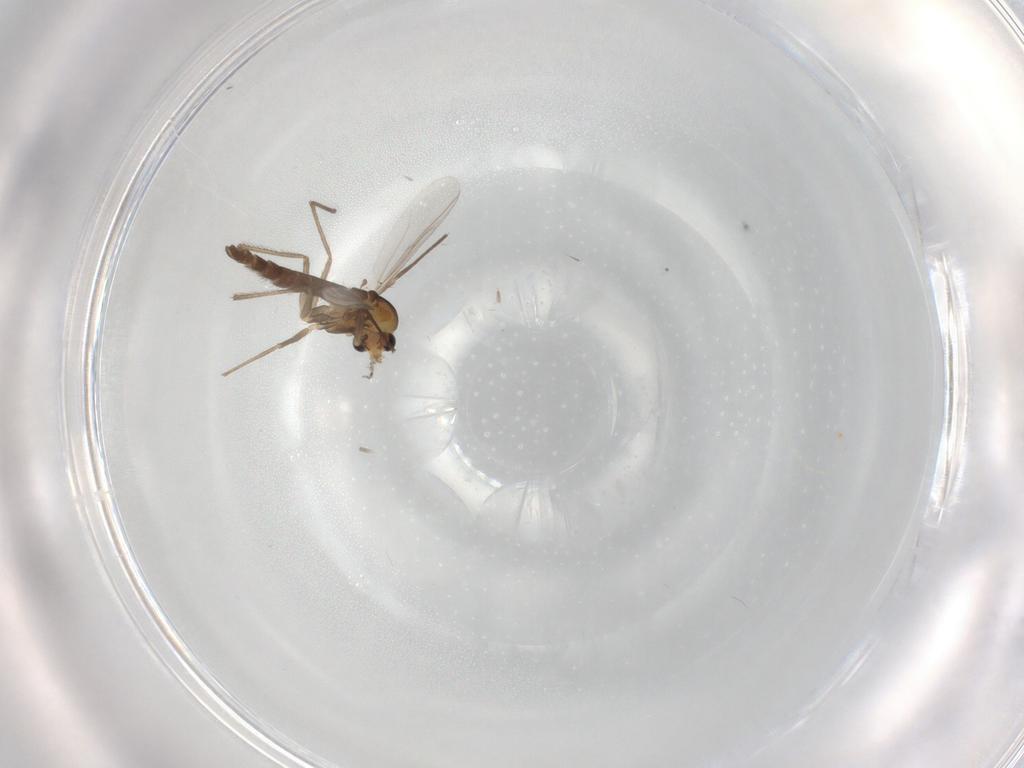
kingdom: Animalia
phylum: Arthropoda
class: Insecta
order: Diptera
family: Chironomidae
